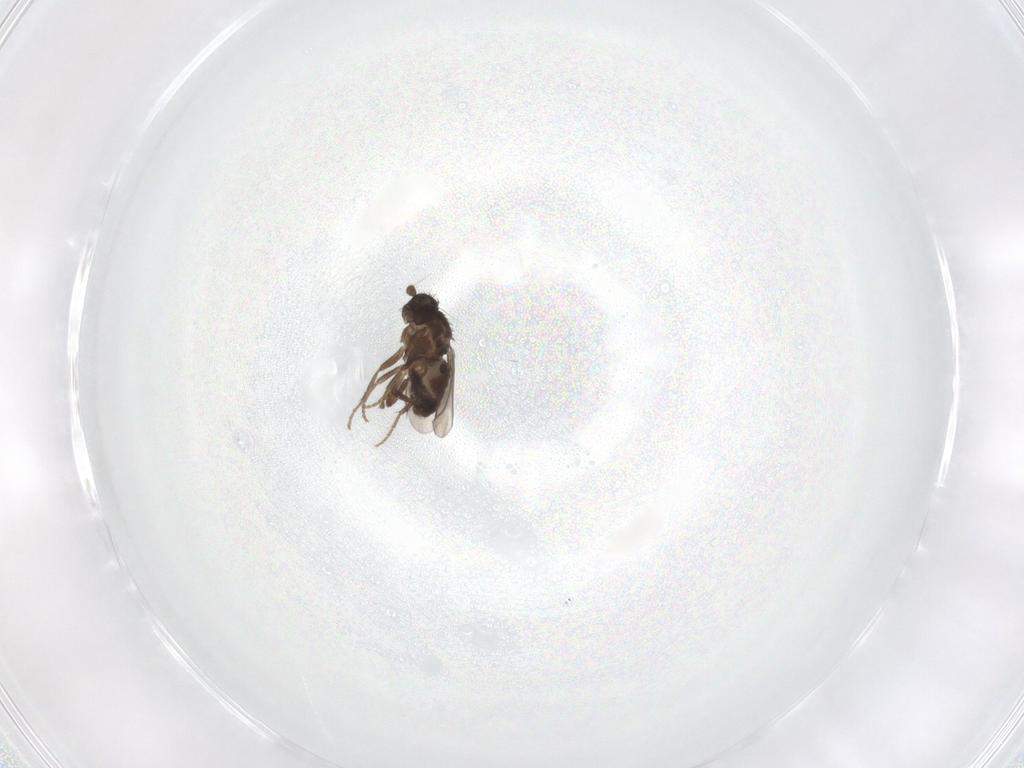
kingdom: Animalia
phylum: Arthropoda
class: Insecta
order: Diptera
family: Sphaeroceridae
